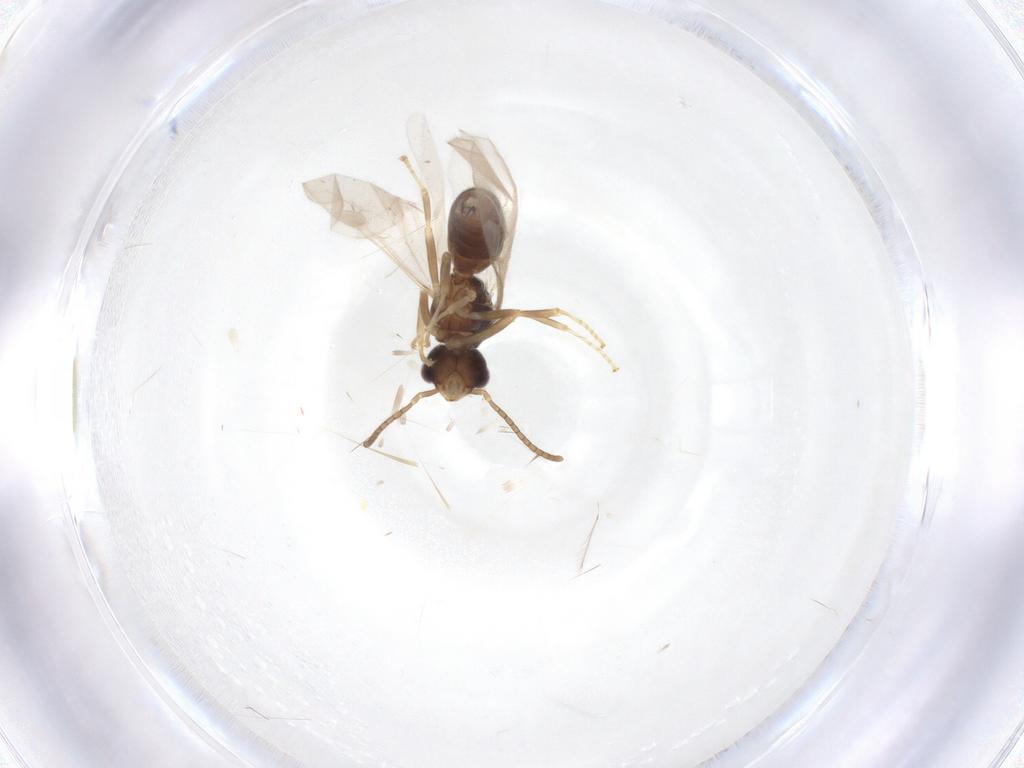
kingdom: Animalia
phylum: Arthropoda
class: Insecta
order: Hymenoptera
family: Formicidae
